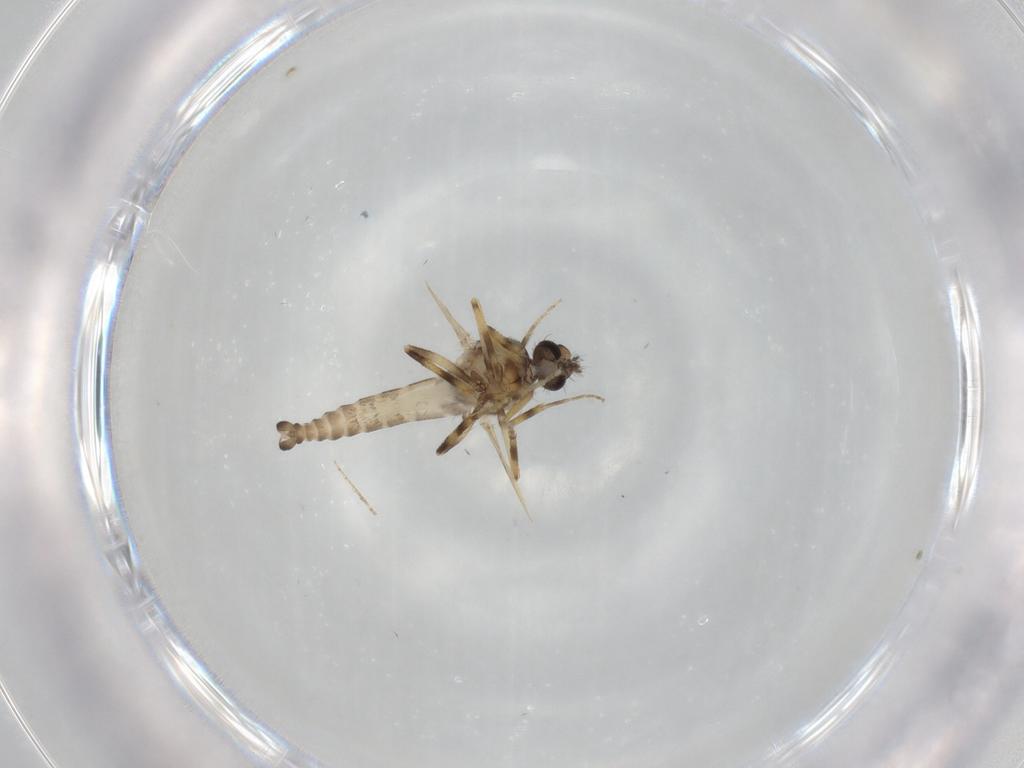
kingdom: Animalia
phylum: Arthropoda
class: Insecta
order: Diptera
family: Ceratopogonidae
